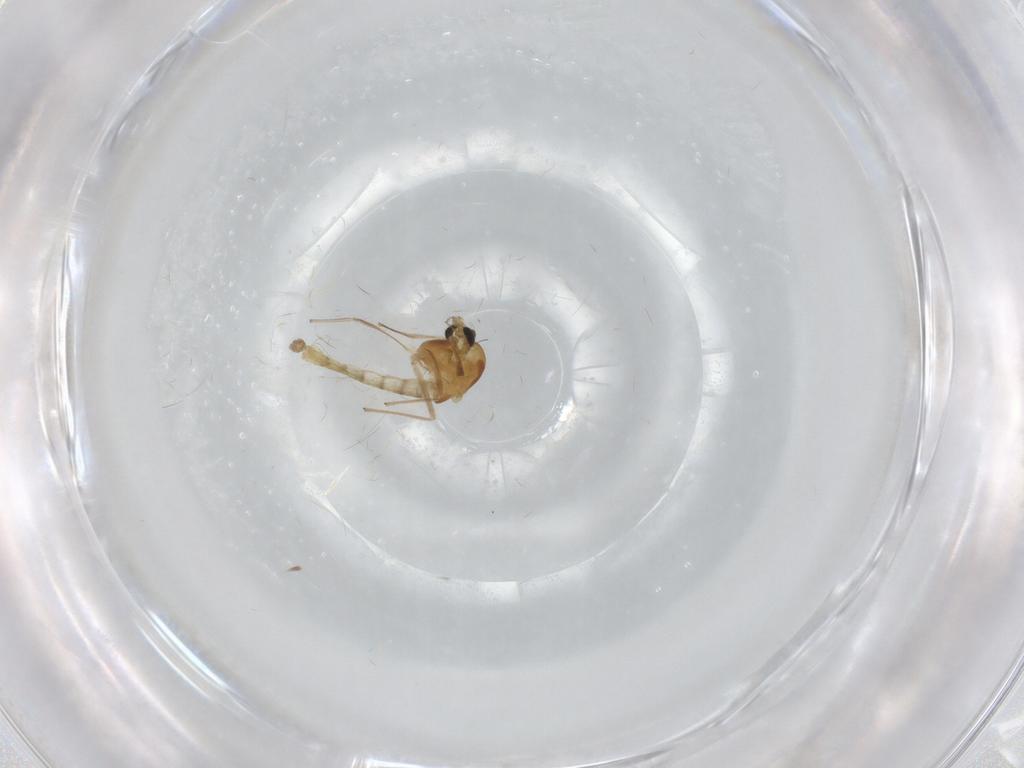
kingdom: Animalia
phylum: Arthropoda
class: Insecta
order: Diptera
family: Chironomidae
